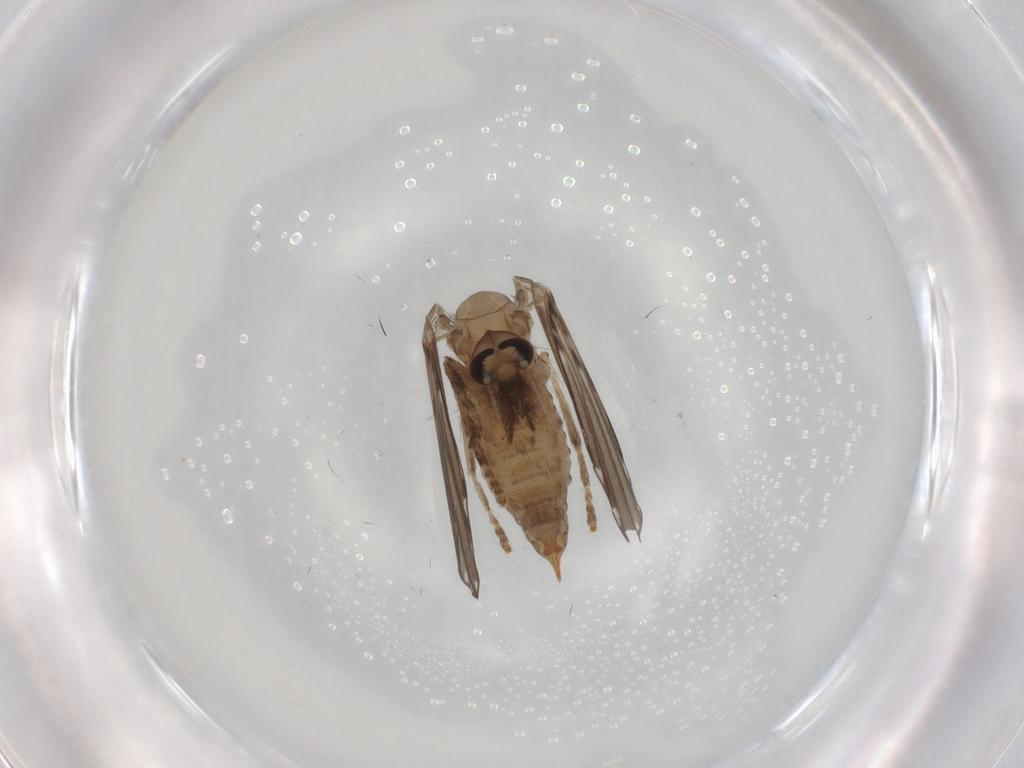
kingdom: Animalia
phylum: Arthropoda
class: Insecta
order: Diptera
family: Psychodidae
